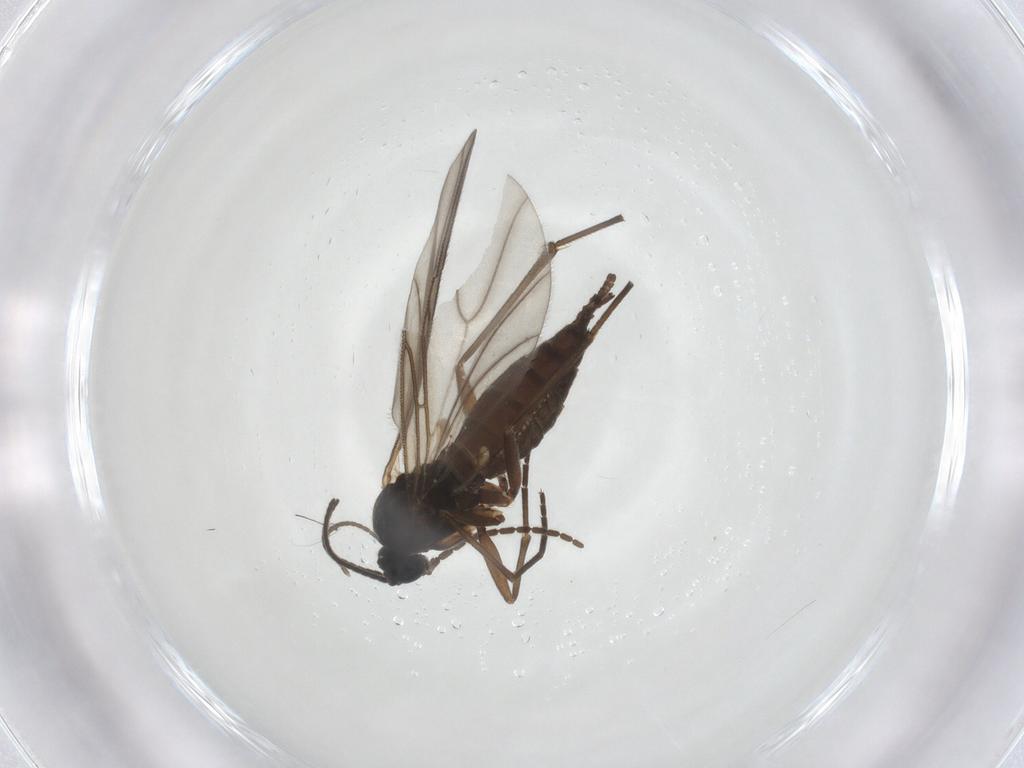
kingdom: Animalia
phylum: Arthropoda
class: Insecta
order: Diptera
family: Sciaridae
